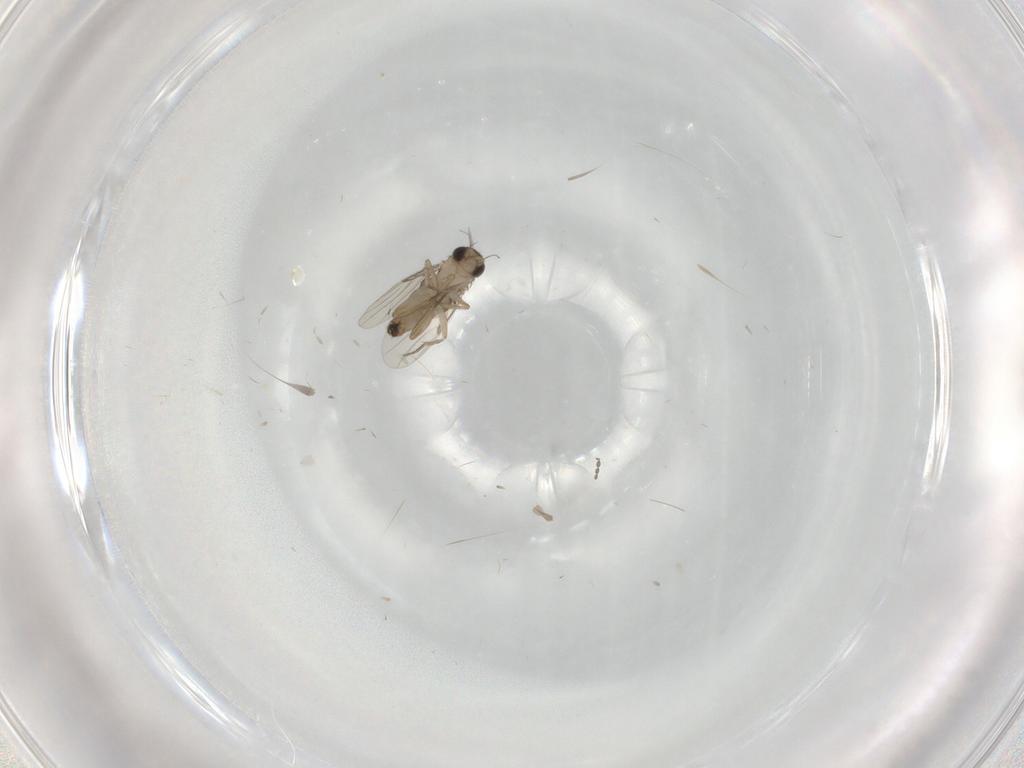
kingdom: Animalia
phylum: Arthropoda
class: Insecta
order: Diptera
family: Phoridae
